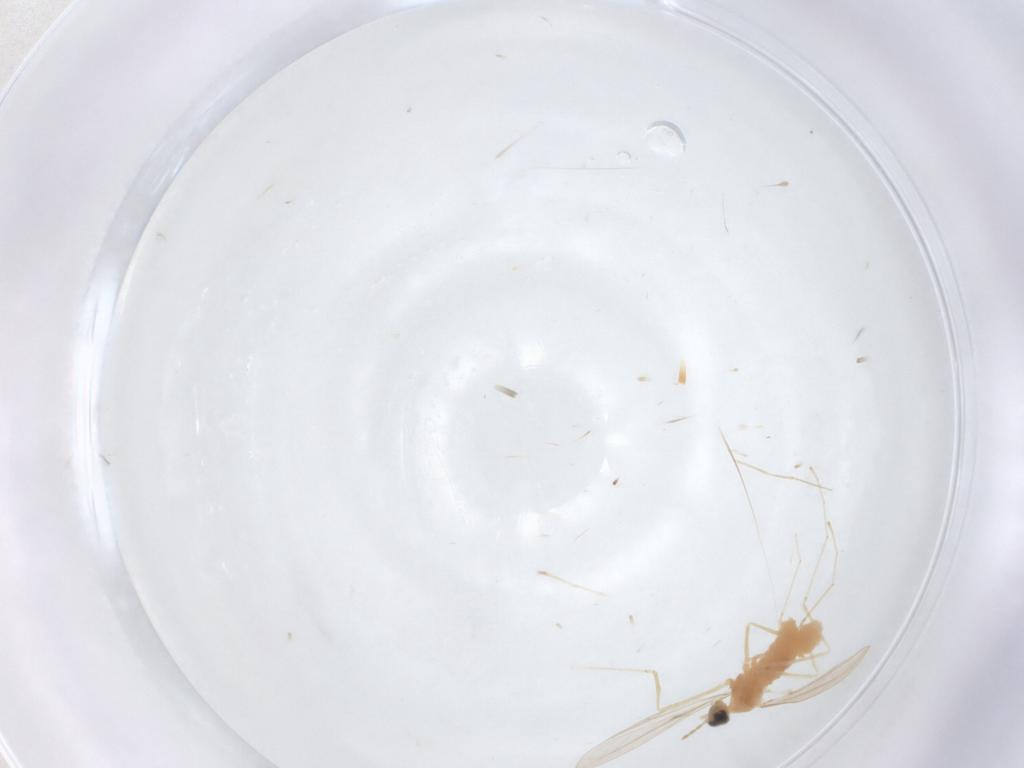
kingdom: Animalia
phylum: Arthropoda
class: Insecta
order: Diptera
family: Cecidomyiidae
